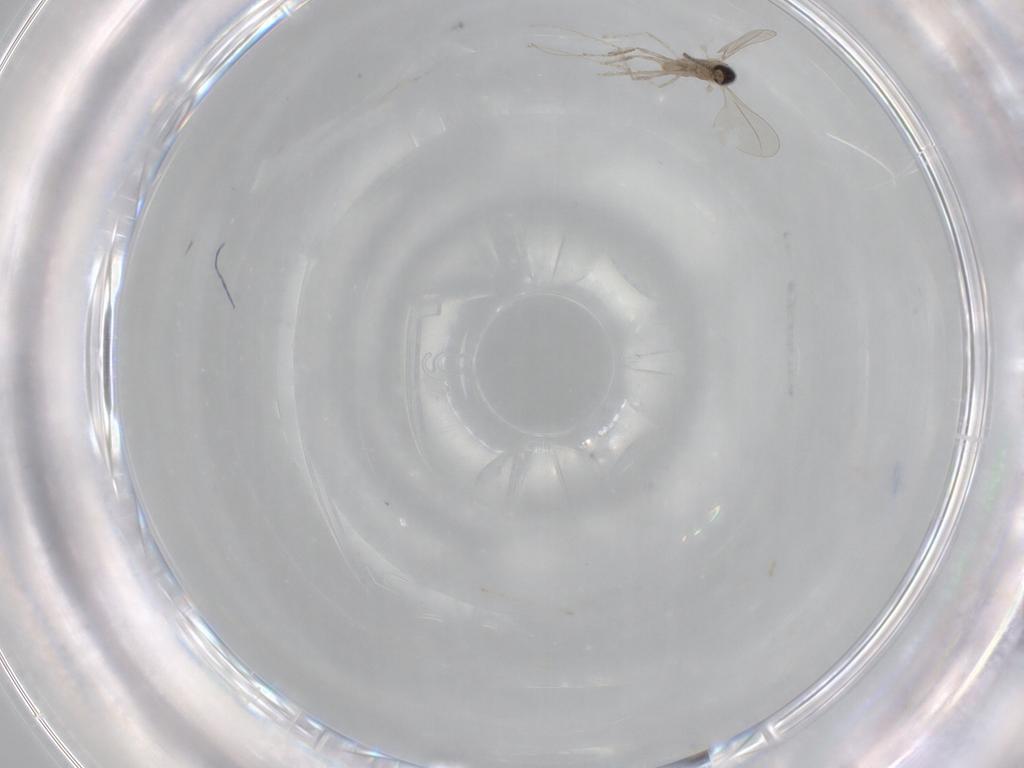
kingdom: Animalia
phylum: Arthropoda
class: Insecta
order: Diptera
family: Cecidomyiidae
